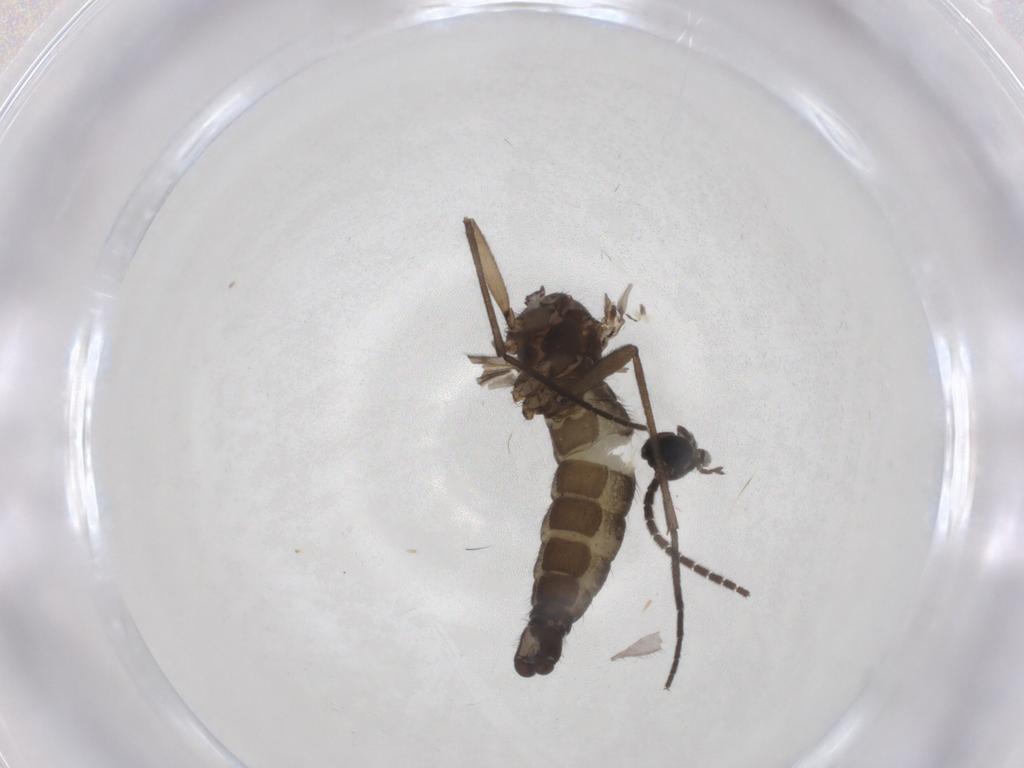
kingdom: Animalia
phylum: Arthropoda
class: Insecta
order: Diptera
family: Sciaridae
